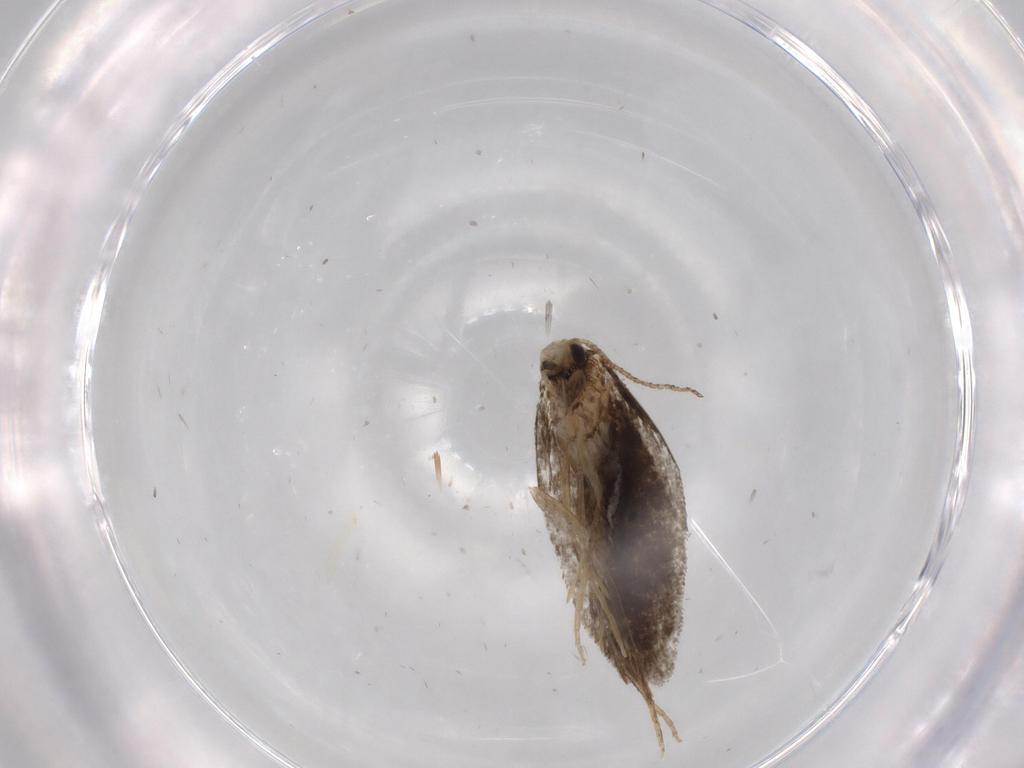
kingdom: Animalia
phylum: Arthropoda
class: Insecta
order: Lepidoptera
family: Psychidae
